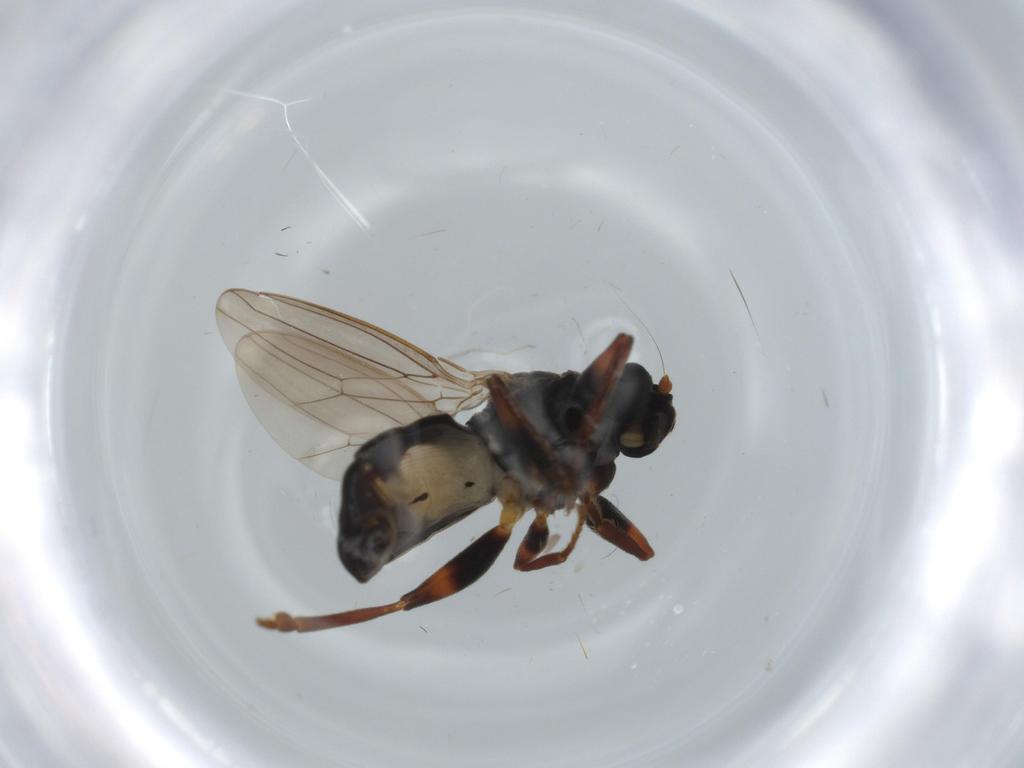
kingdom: Animalia
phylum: Arthropoda
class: Insecta
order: Diptera
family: Sphaeroceridae
